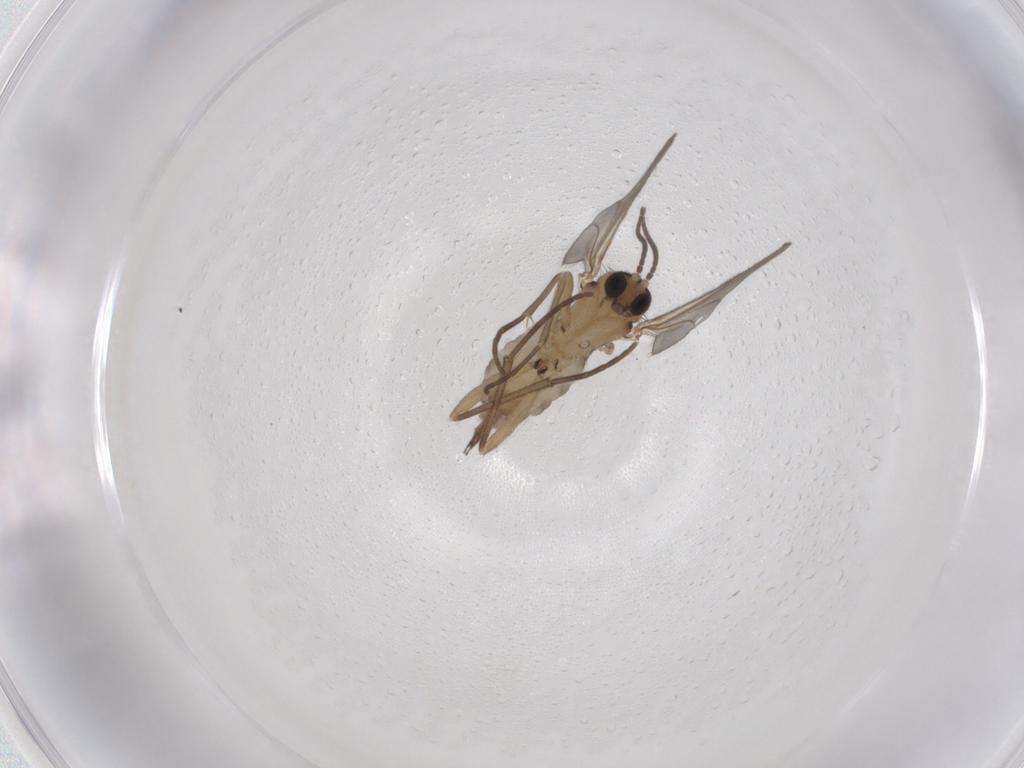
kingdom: Animalia
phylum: Arthropoda
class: Insecta
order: Diptera
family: Sciaridae
